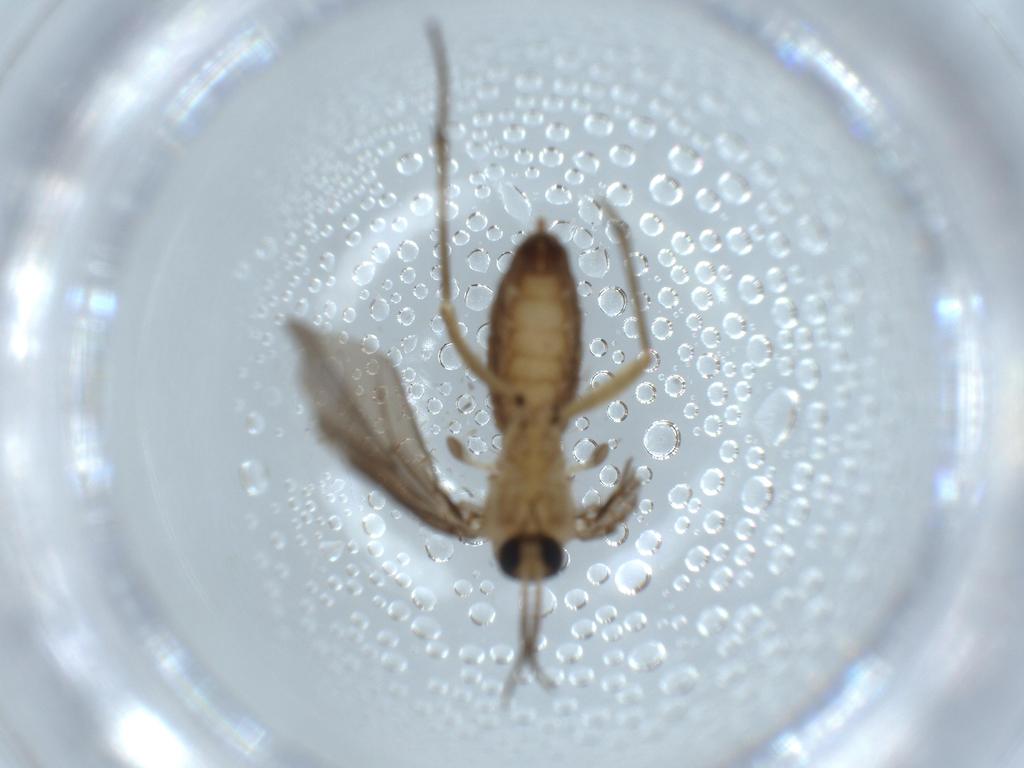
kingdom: Animalia
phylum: Arthropoda
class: Insecta
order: Diptera
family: Diadocidiidae
